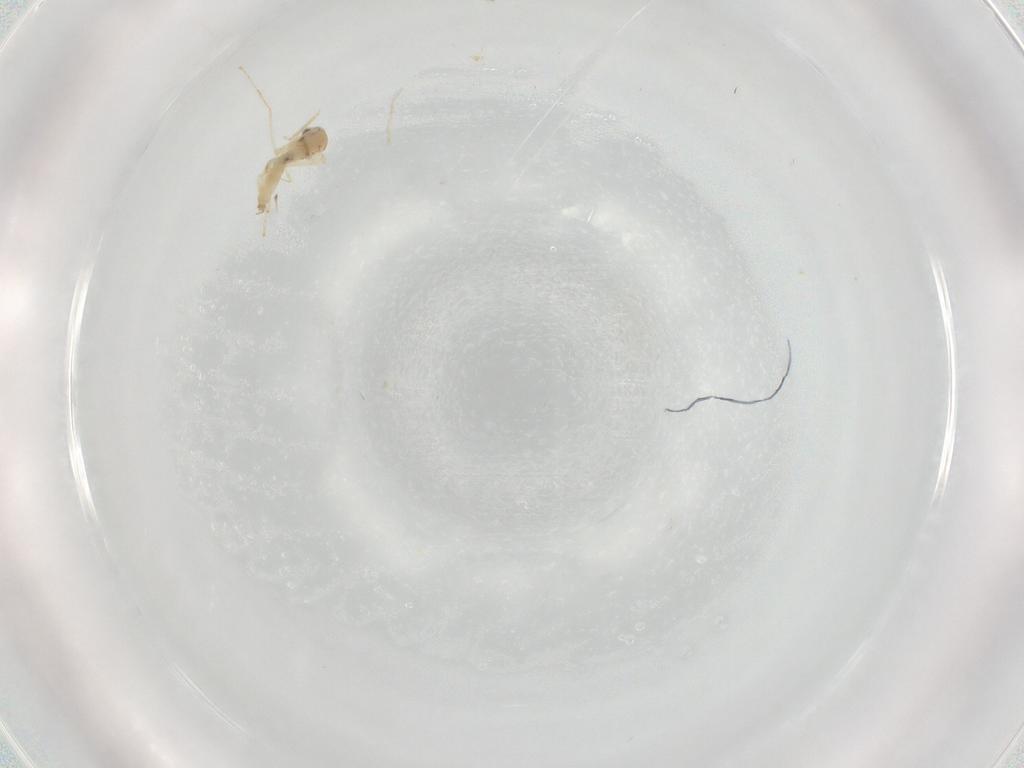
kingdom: Animalia
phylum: Arthropoda
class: Insecta
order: Diptera
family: Cecidomyiidae
